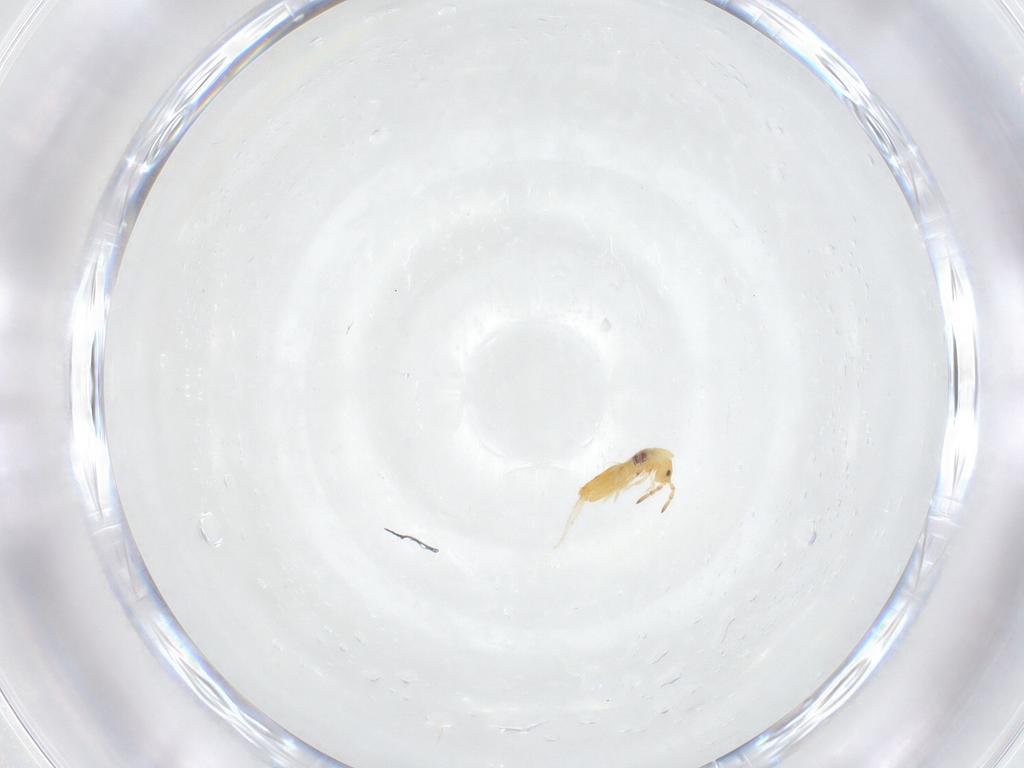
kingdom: Animalia
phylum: Arthropoda
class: Collembola
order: Entomobryomorpha
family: Entomobryidae
